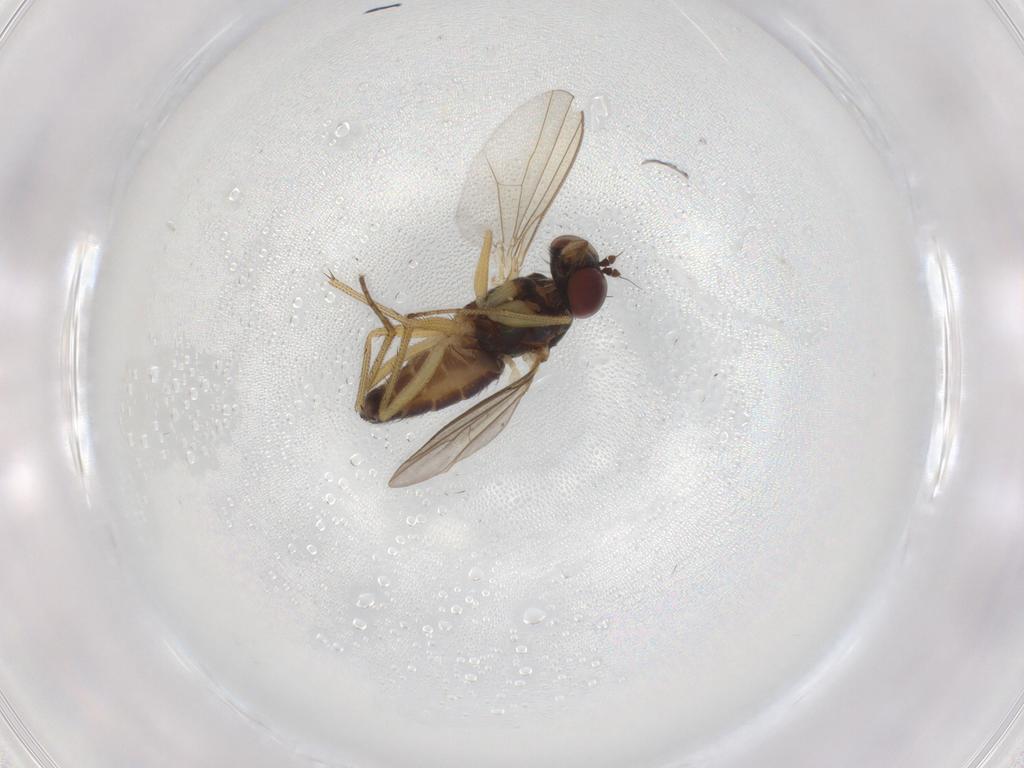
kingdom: Animalia
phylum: Arthropoda
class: Insecta
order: Diptera
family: Dolichopodidae
